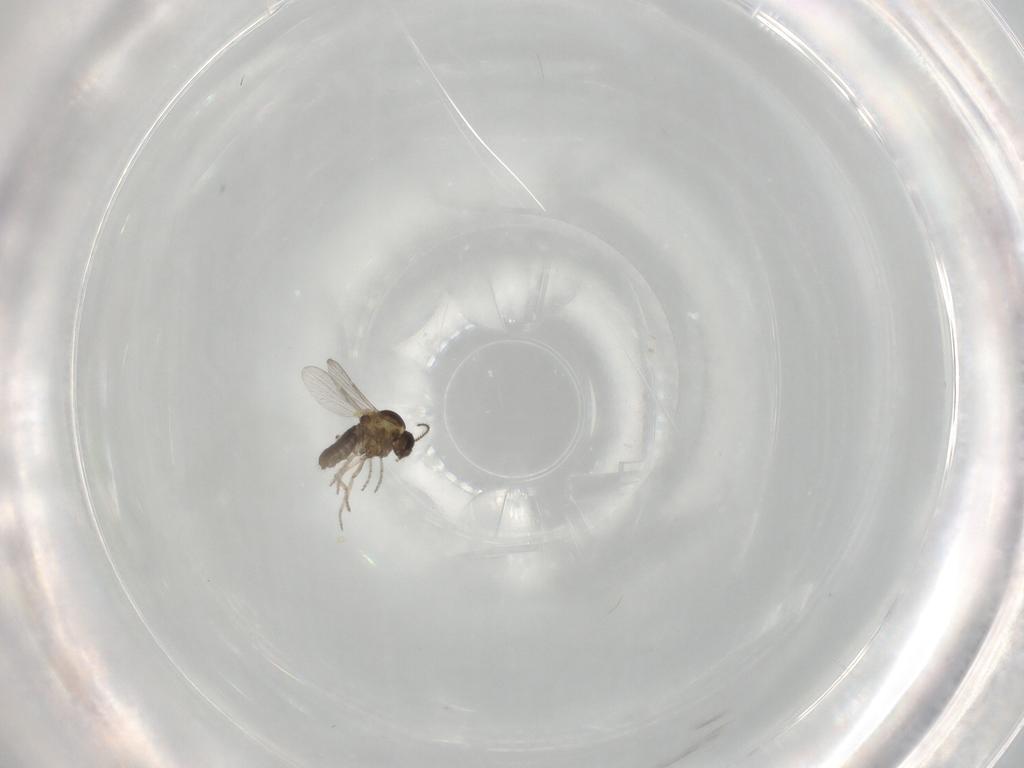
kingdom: Animalia
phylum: Arthropoda
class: Insecta
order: Diptera
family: Ceratopogonidae
